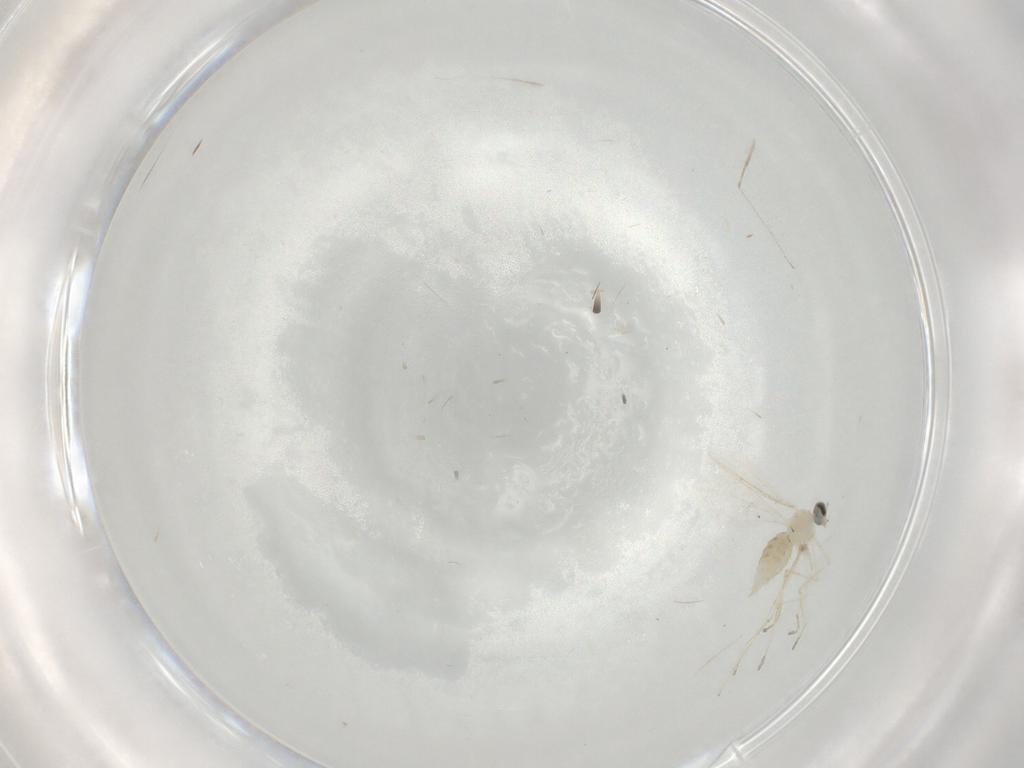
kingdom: Animalia
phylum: Arthropoda
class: Insecta
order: Diptera
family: Cecidomyiidae
